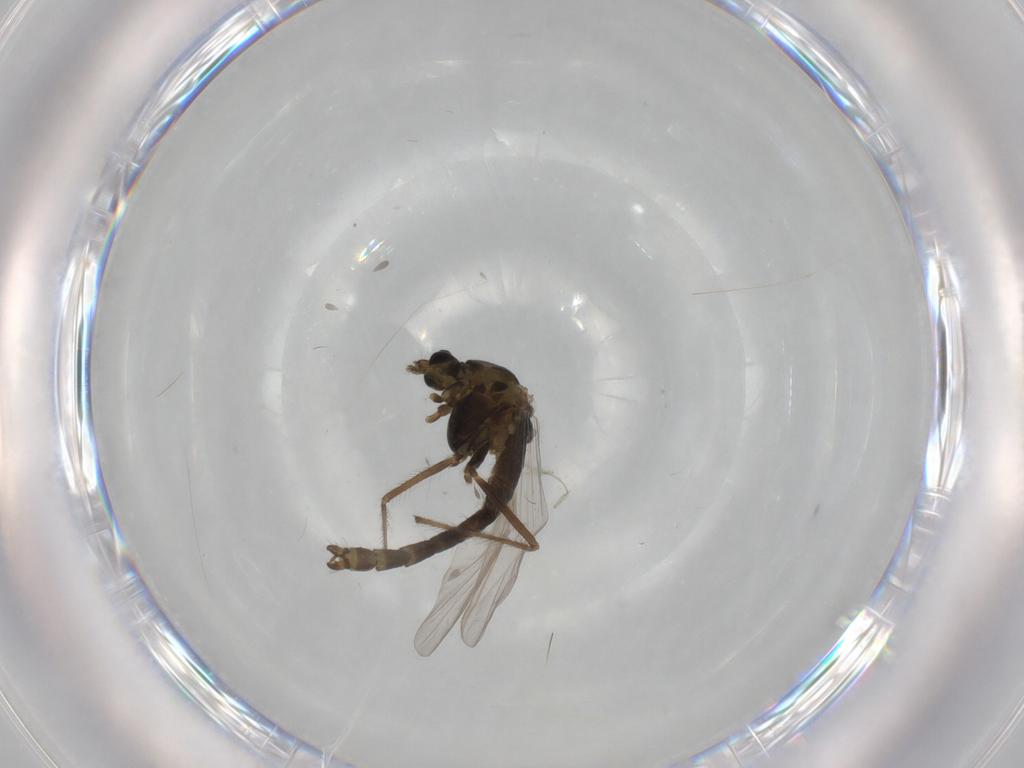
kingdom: Animalia
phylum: Arthropoda
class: Insecta
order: Diptera
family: Chironomidae
